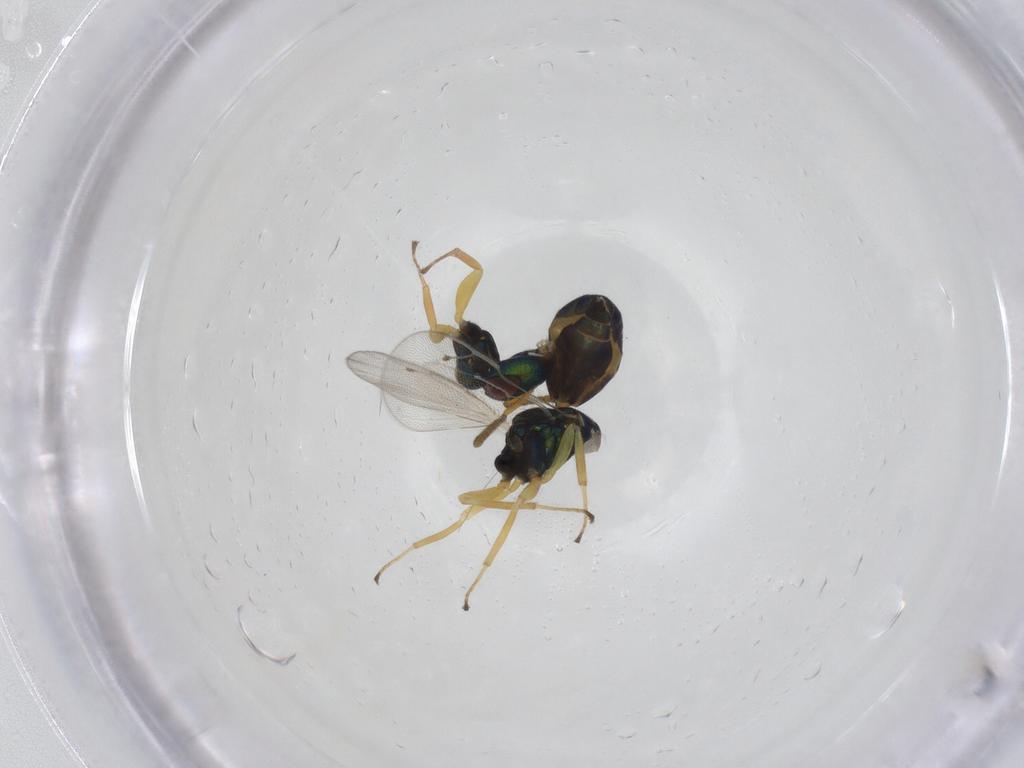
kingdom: Animalia
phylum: Arthropoda
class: Insecta
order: Hymenoptera
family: Pteromalidae
